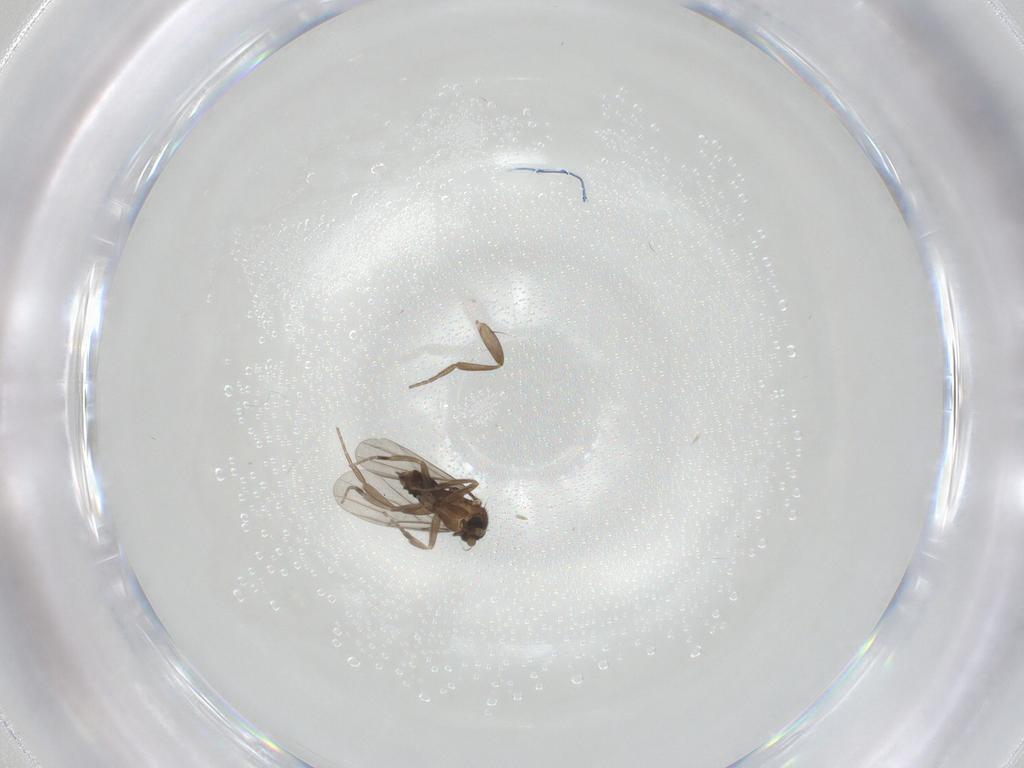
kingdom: Animalia
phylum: Arthropoda
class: Insecta
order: Diptera
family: Phoridae
